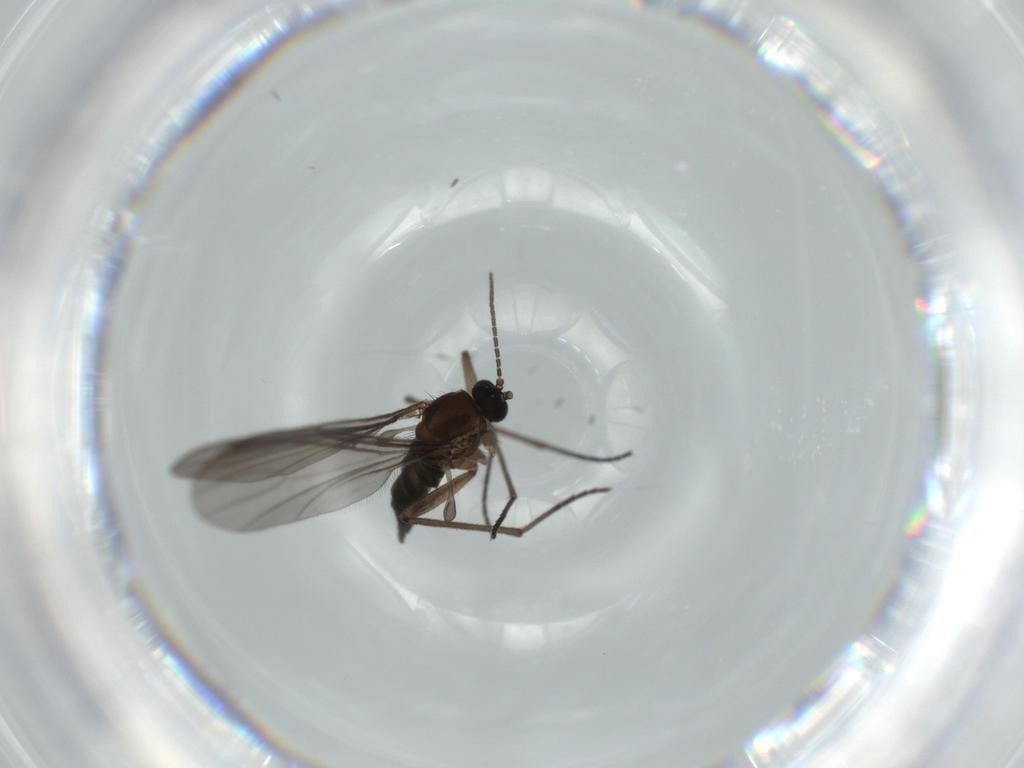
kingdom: Animalia
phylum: Arthropoda
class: Insecta
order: Diptera
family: Sciaridae
